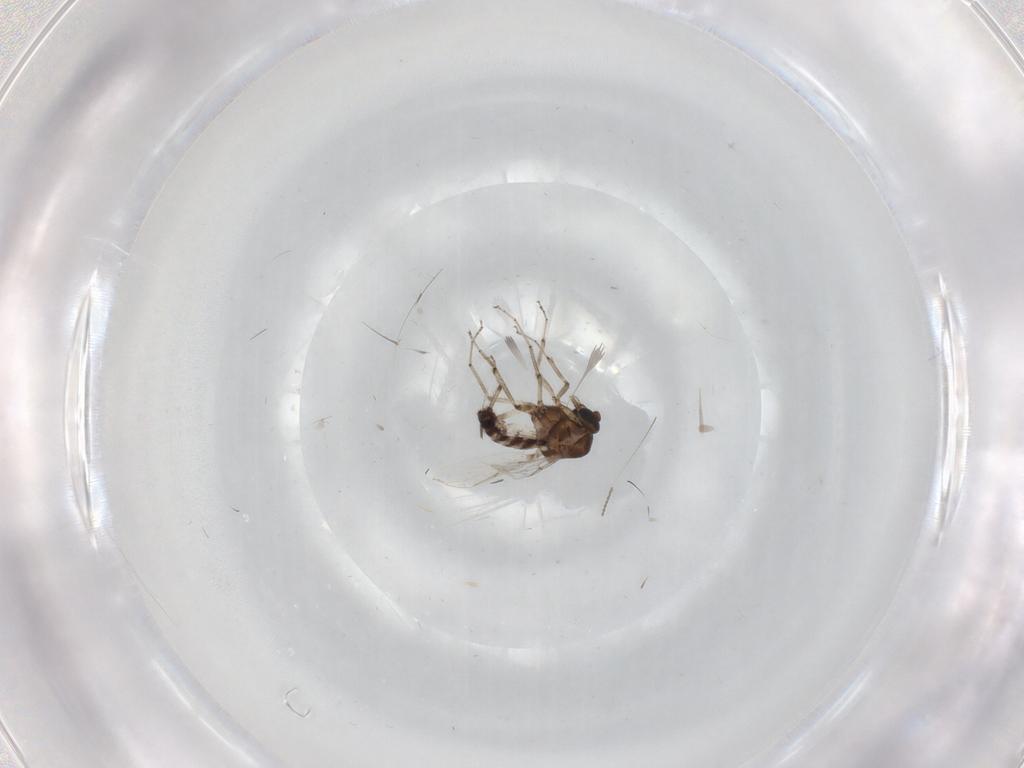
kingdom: Animalia
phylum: Arthropoda
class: Insecta
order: Diptera
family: Ceratopogonidae
